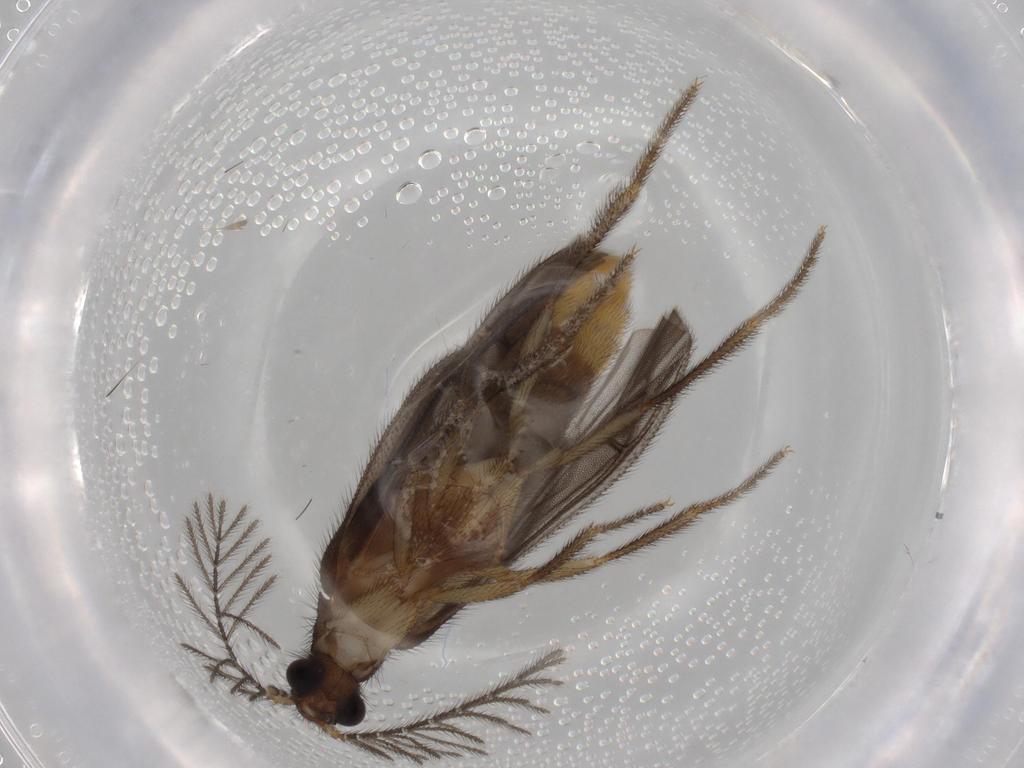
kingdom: Animalia
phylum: Arthropoda
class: Insecta
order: Coleoptera
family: Phengodidae
